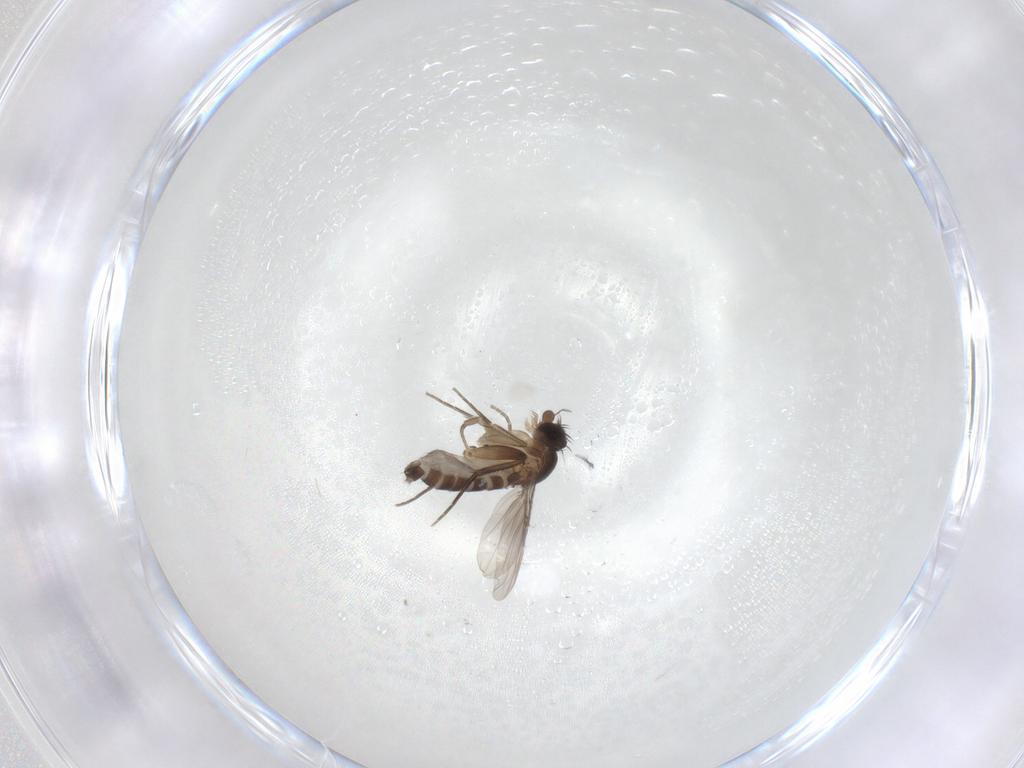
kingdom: Animalia
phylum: Arthropoda
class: Insecta
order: Diptera
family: Phoridae
